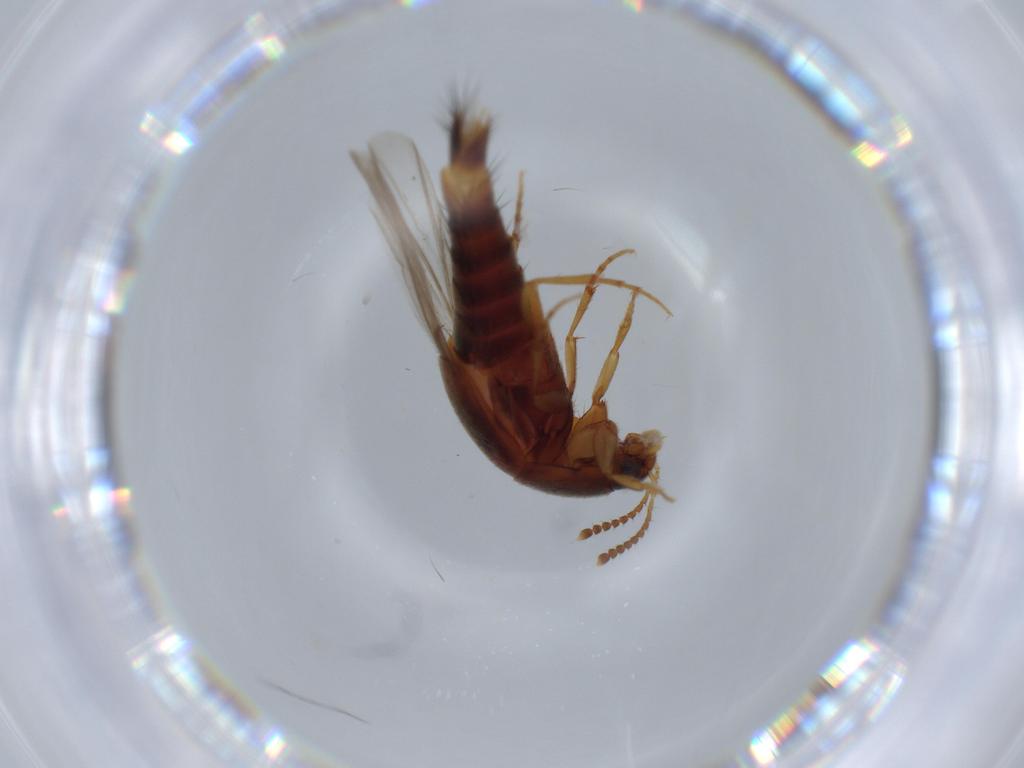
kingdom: Animalia
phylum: Arthropoda
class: Insecta
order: Coleoptera
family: Staphylinidae
